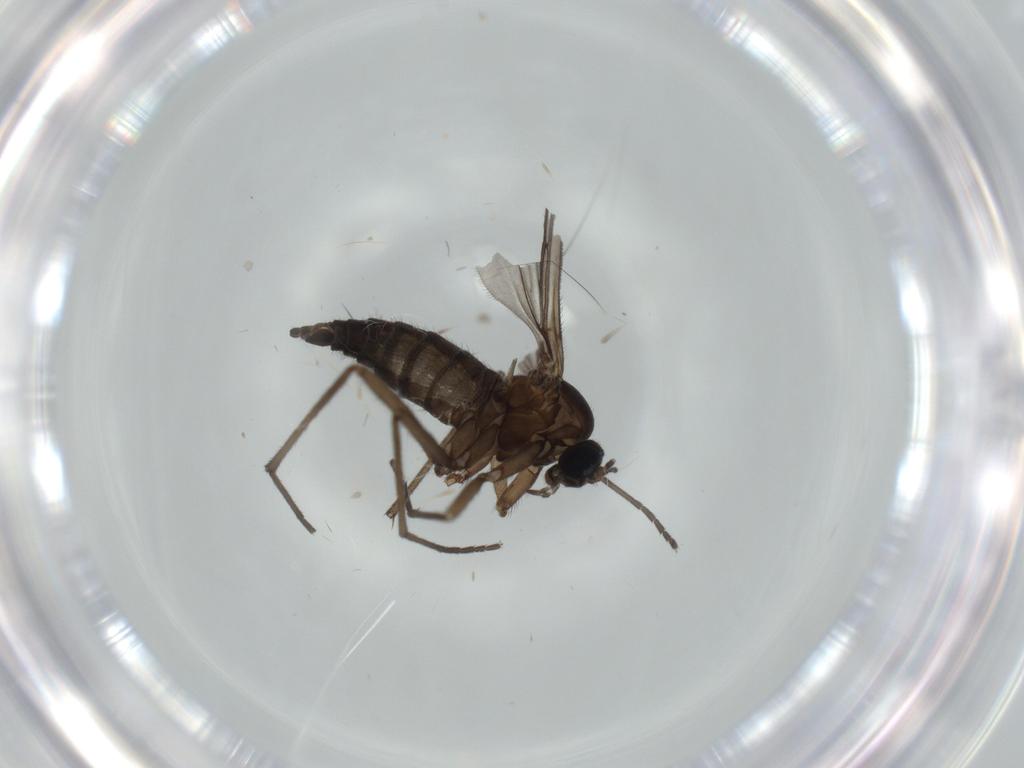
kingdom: Animalia
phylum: Arthropoda
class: Insecta
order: Diptera
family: Sciaridae
